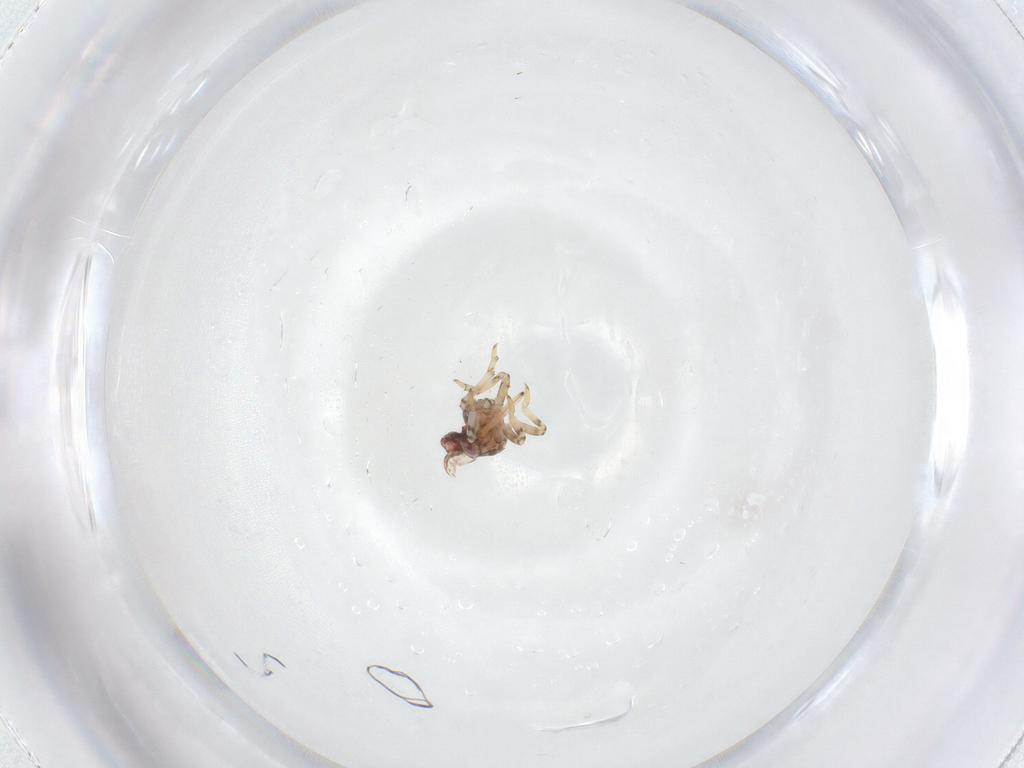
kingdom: Animalia
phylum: Arthropoda
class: Insecta
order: Hemiptera
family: Issidae
